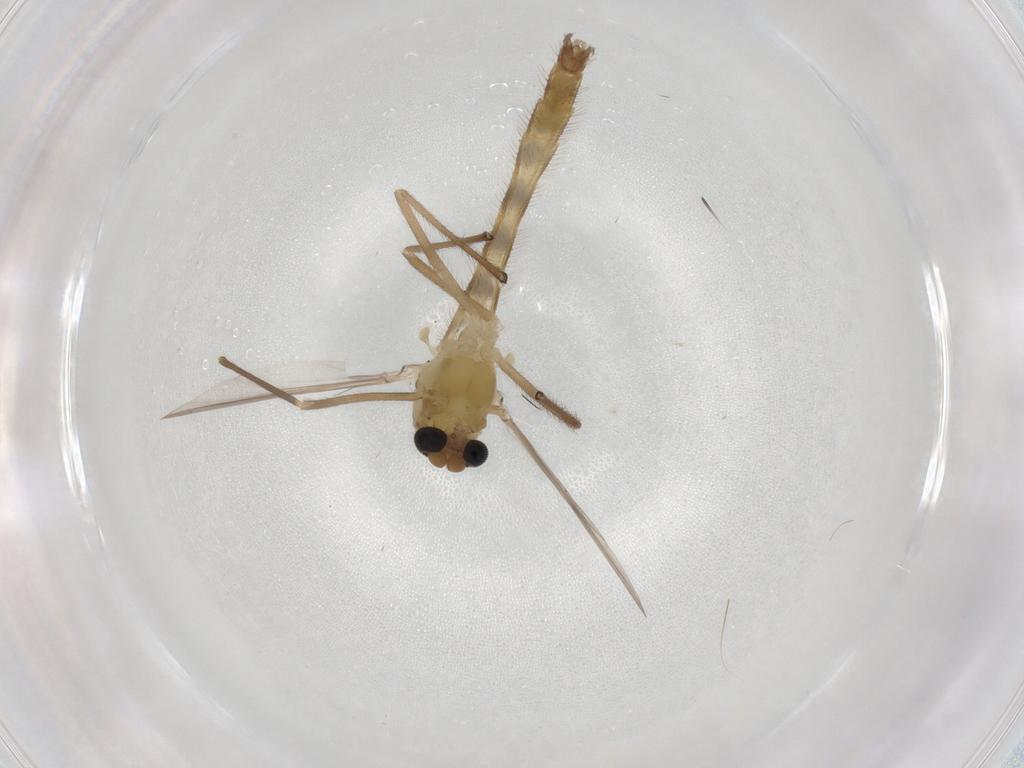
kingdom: Animalia
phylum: Arthropoda
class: Insecta
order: Diptera
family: Chironomidae
